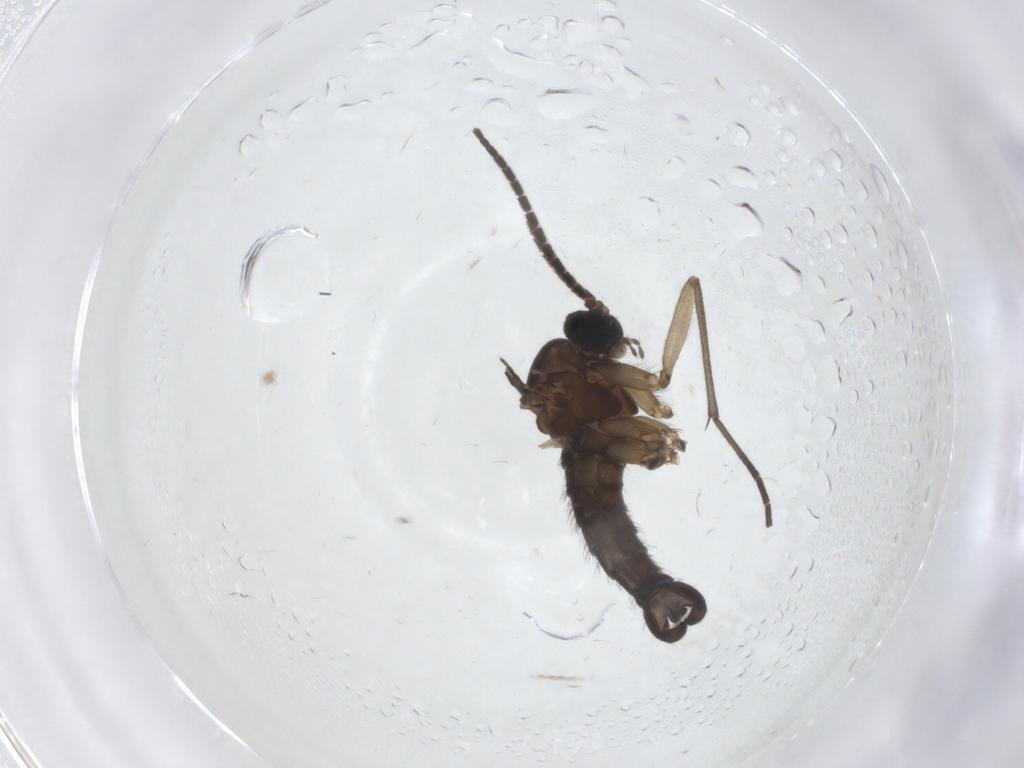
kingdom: Animalia
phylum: Arthropoda
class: Insecta
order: Diptera
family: Sciaridae
